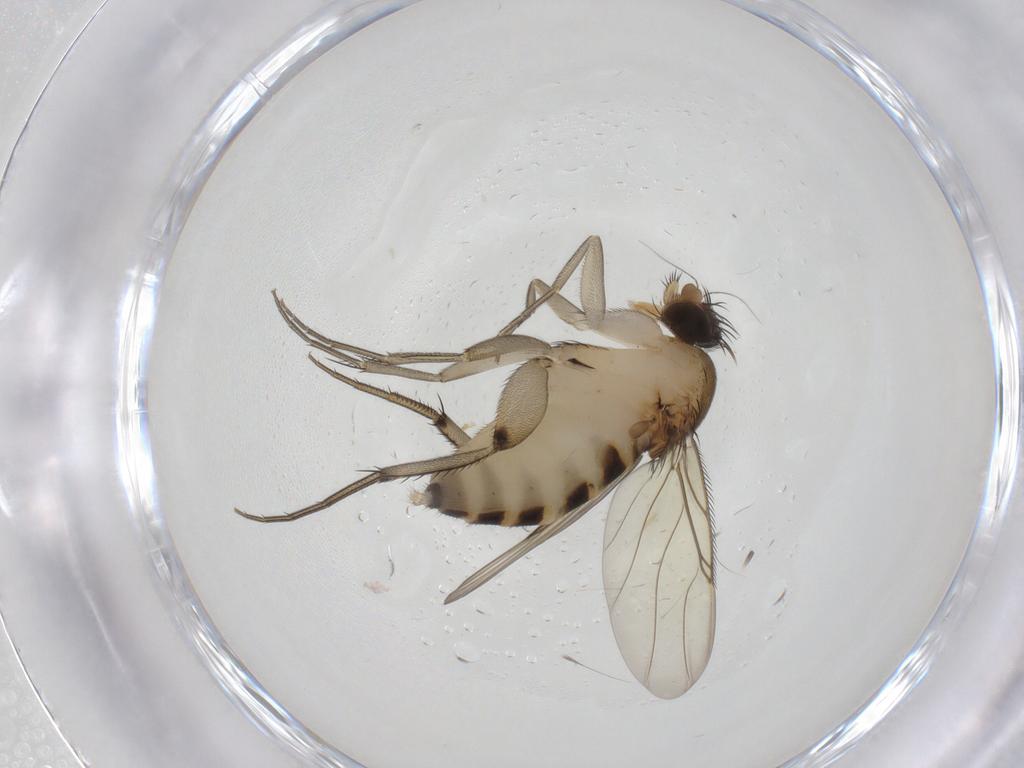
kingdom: Animalia
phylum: Arthropoda
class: Insecta
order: Diptera
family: Phoridae
